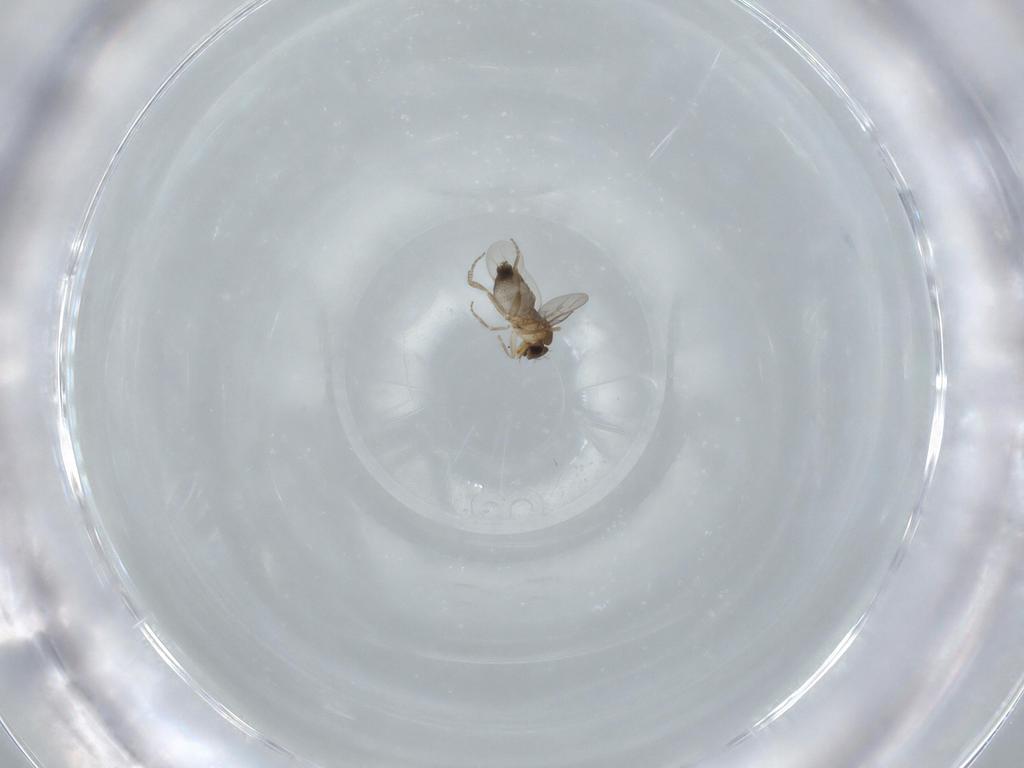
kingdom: Animalia
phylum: Arthropoda
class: Insecta
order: Diptera
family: Phoridae
